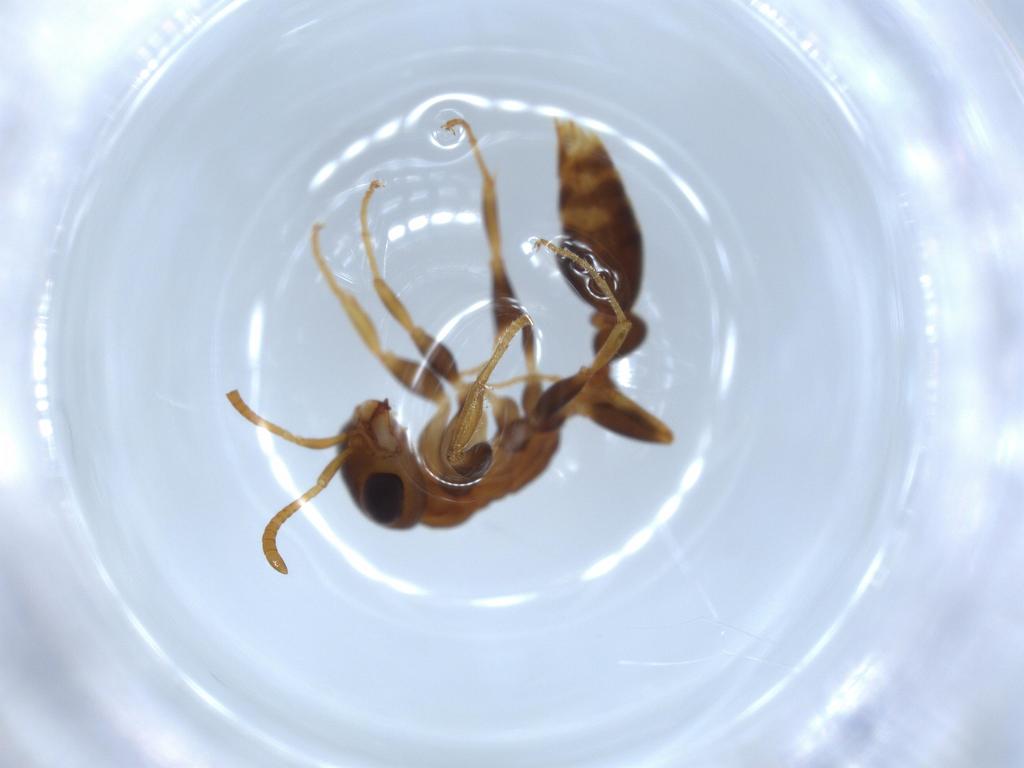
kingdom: Animalia
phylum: Arthropoda
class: Insecta
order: Hymenoptera
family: Formicidae
